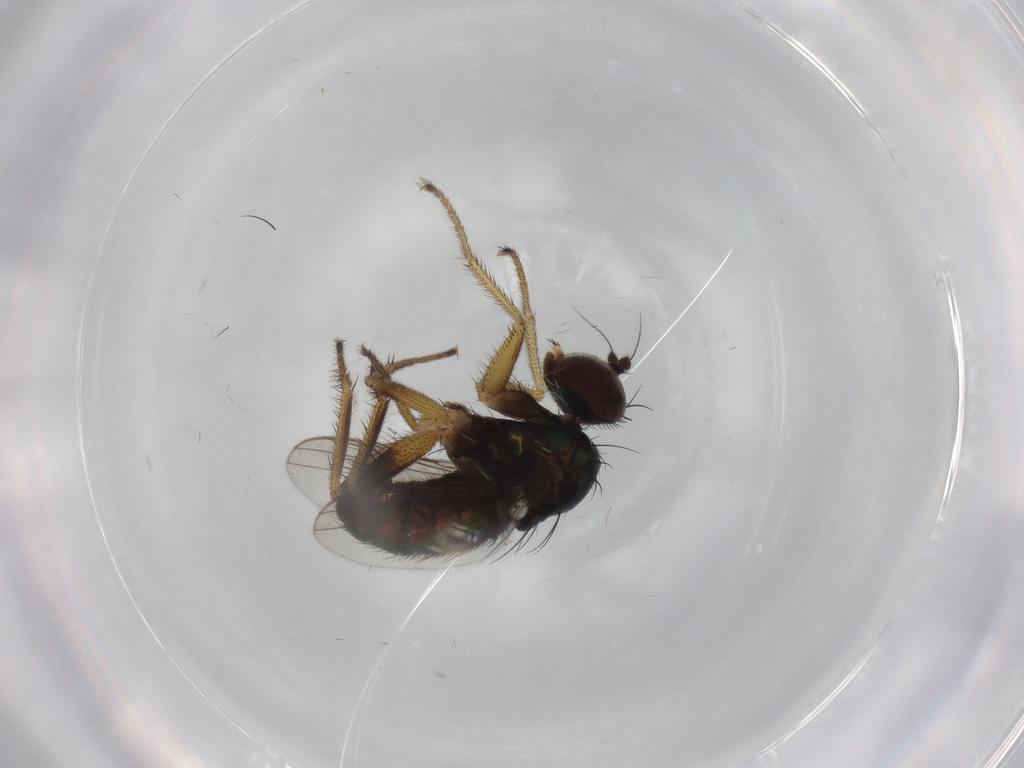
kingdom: Animalia
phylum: Arthropoda
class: Insecta
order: Diptera
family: Dolichopodidae
